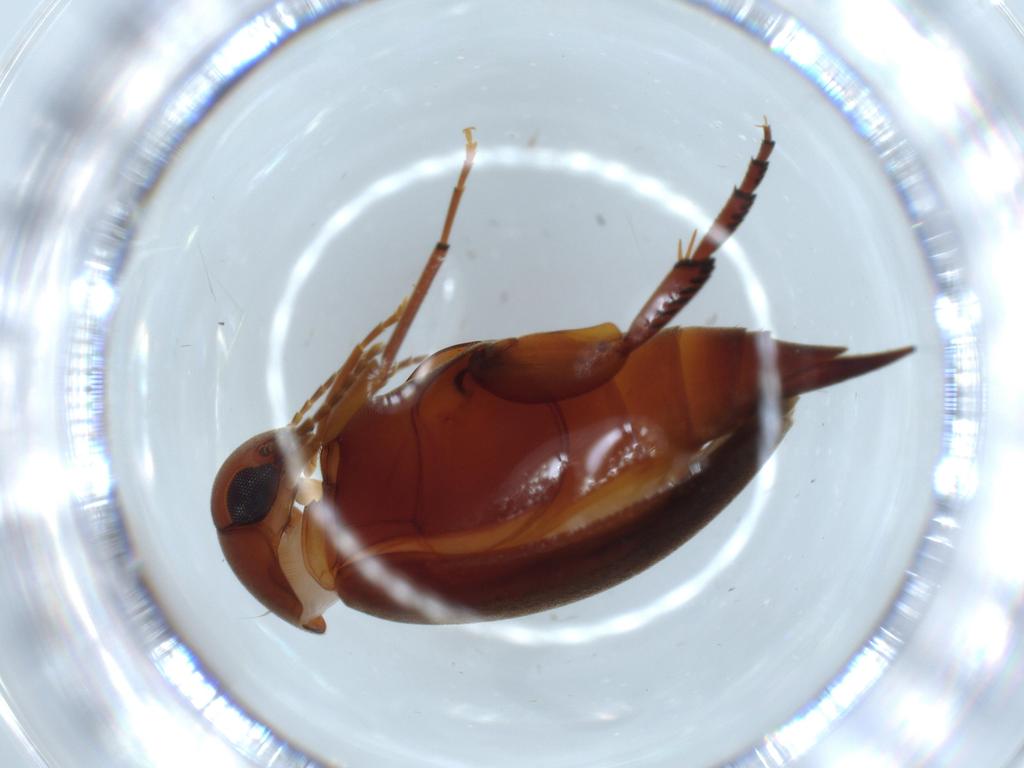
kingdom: Animalia
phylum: Arthropoda
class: Insecta
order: Coleoptera
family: Mordellidae
